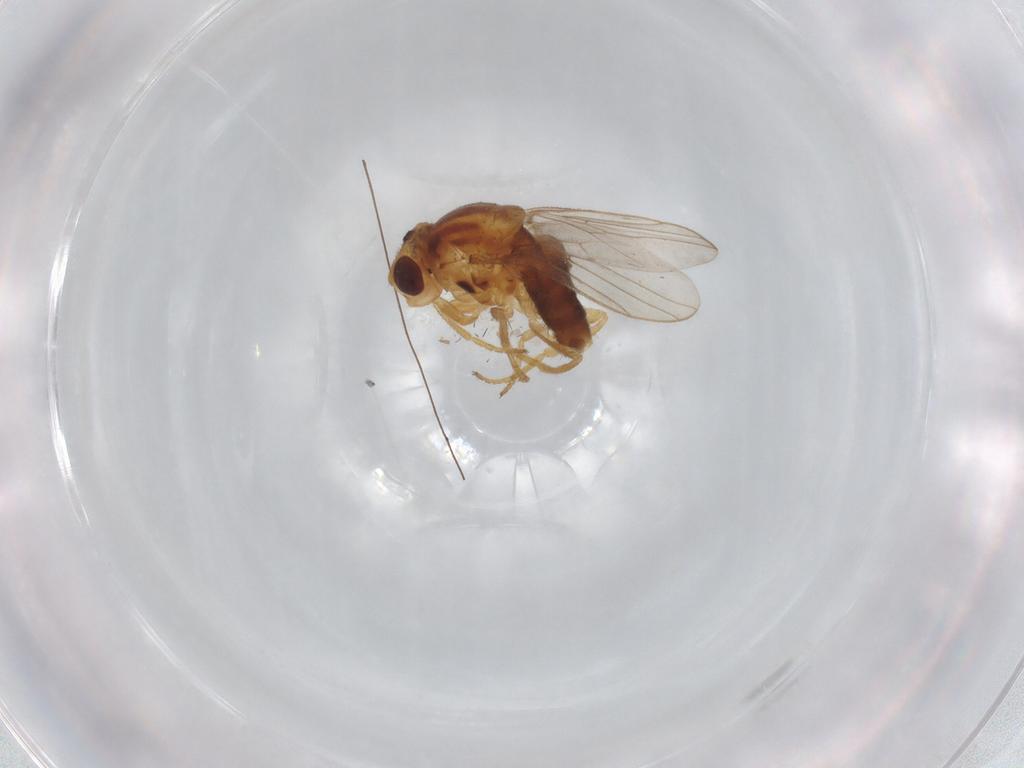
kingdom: Animalia
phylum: Arthropoda
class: Insecta
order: Diptera
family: Chloropidae
